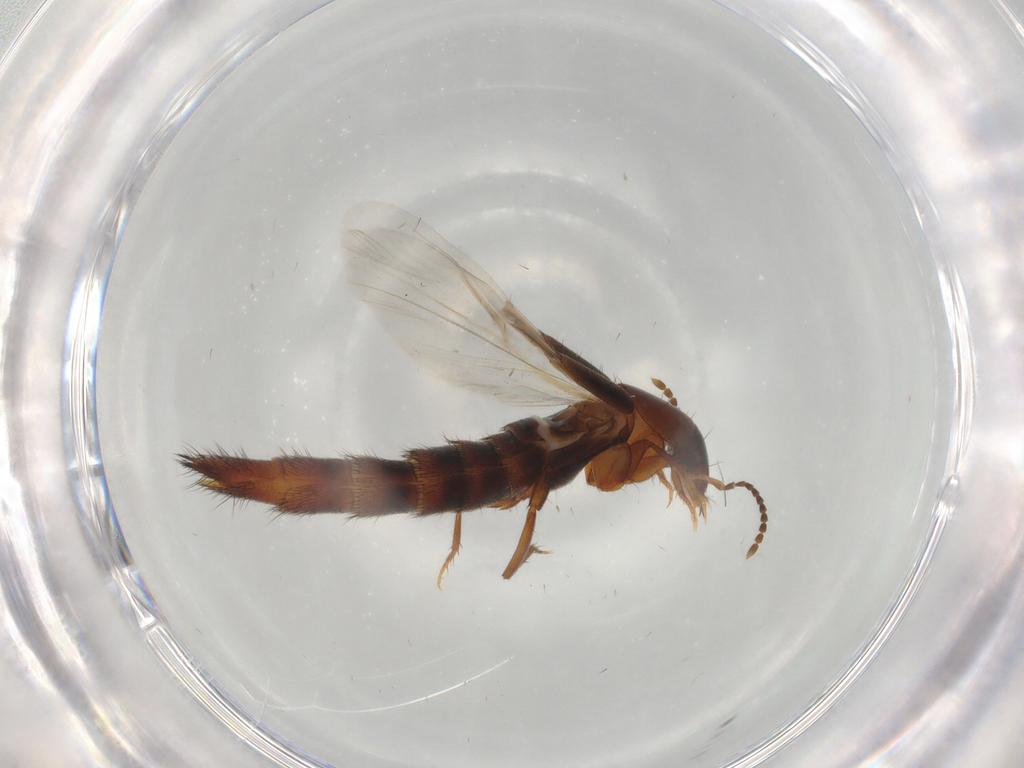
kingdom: Animalia
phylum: Arthropoda
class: Insecta
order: Coleoptera
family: Staphylinidae
